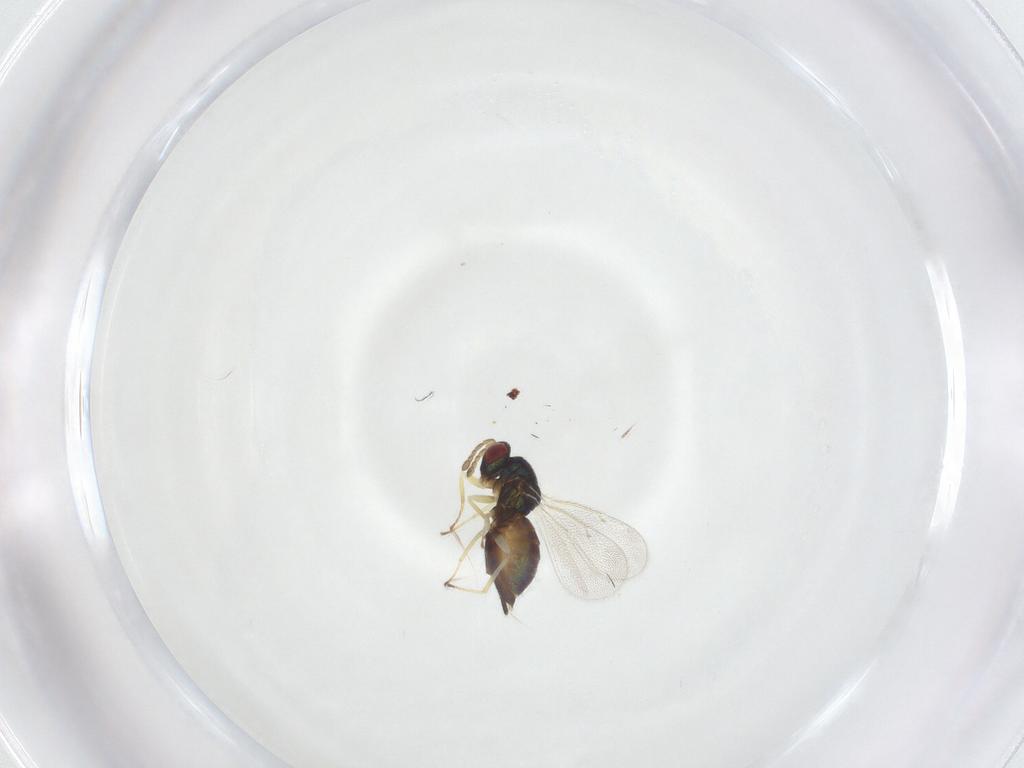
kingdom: Animalia
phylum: Arthropoda
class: Insecta
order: Hymenoptera
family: Eulophidae
